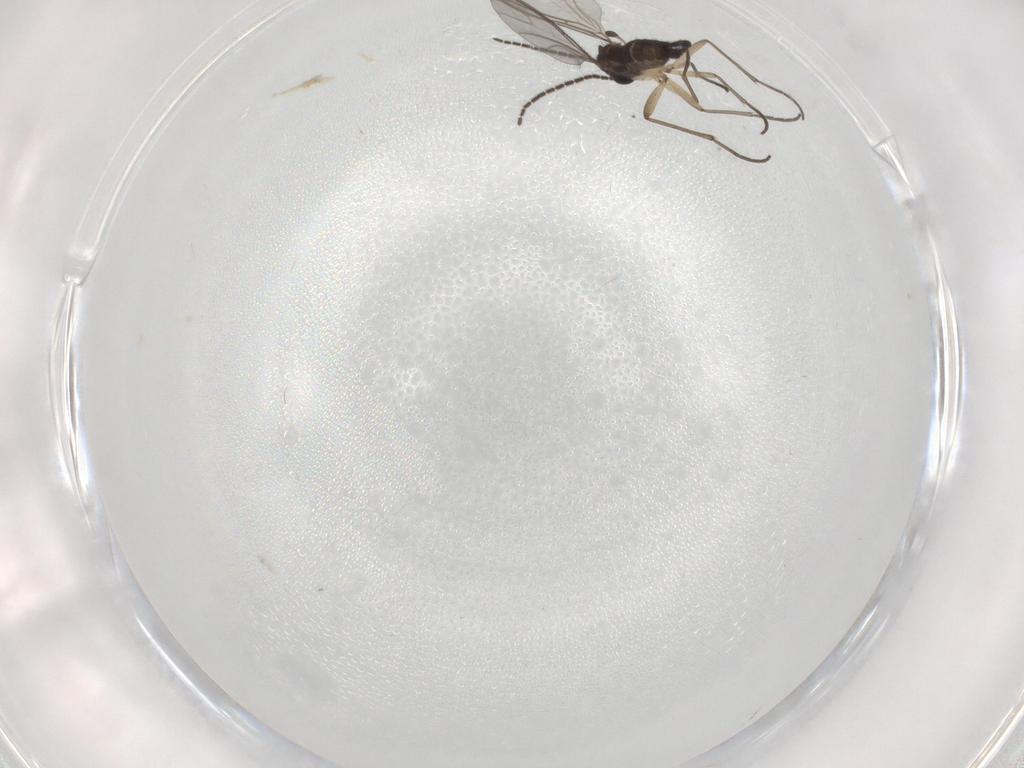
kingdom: Animalia
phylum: Arthropoda
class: Insecta
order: Diptera
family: Sciaridae
